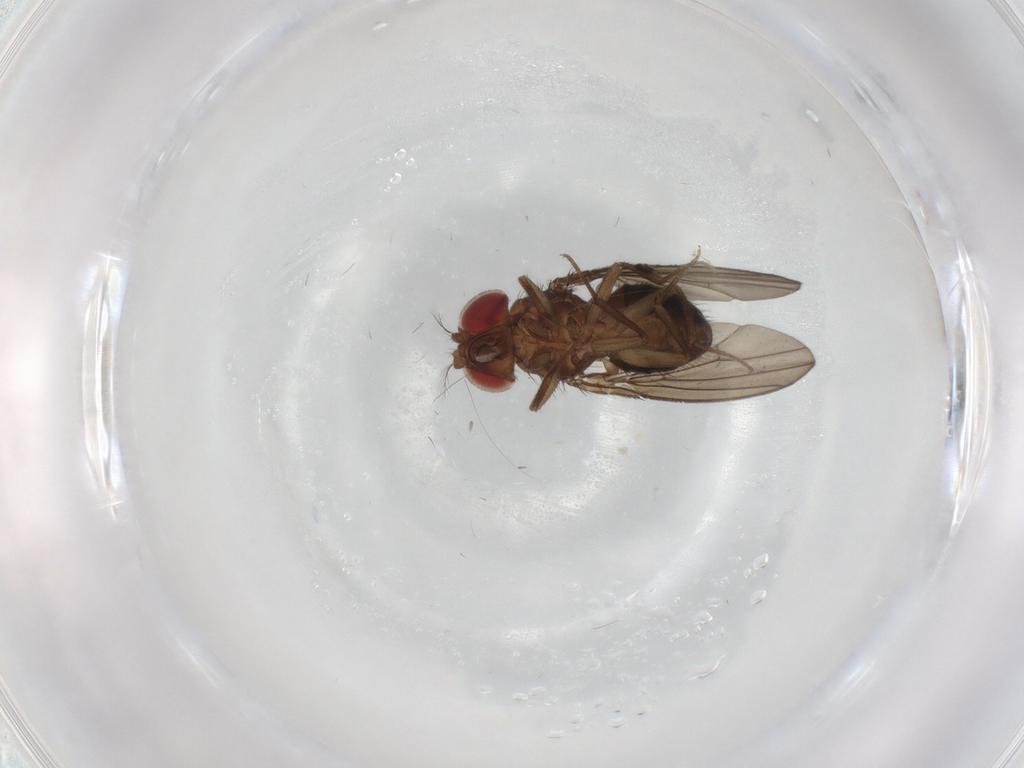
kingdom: Animalia
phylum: Arthropoda
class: Insecta
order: Diptera
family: Drosophilidae
